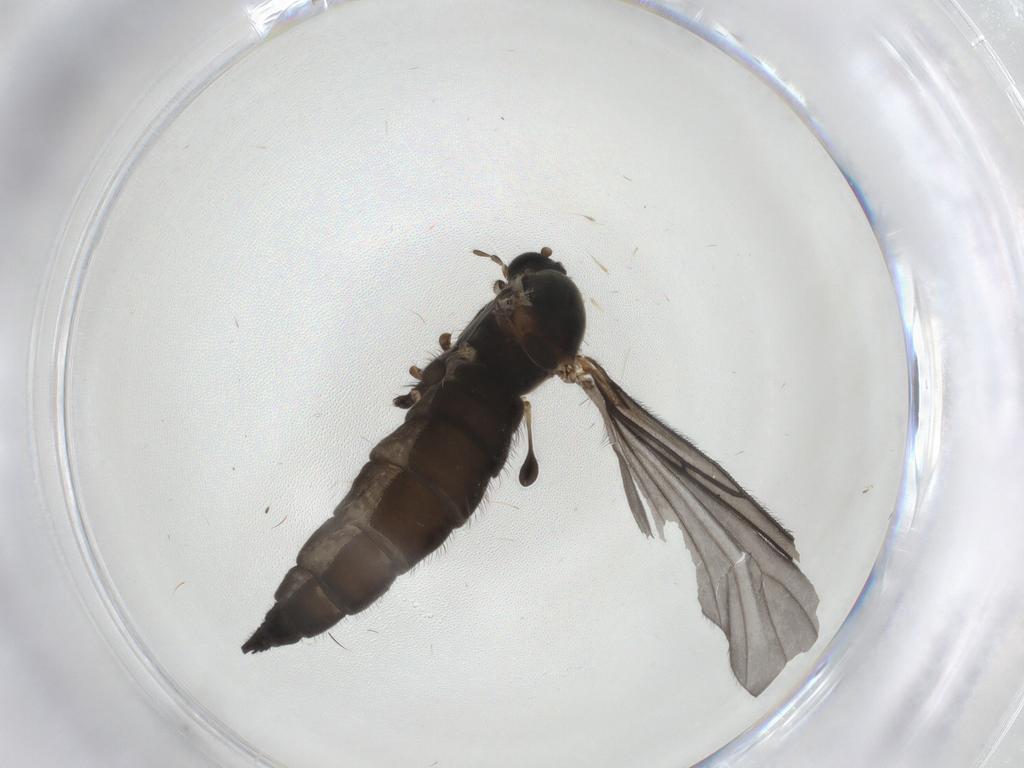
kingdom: Animalia
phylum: Arthropoda
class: Insecta
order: Diptera
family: Sciaridae
